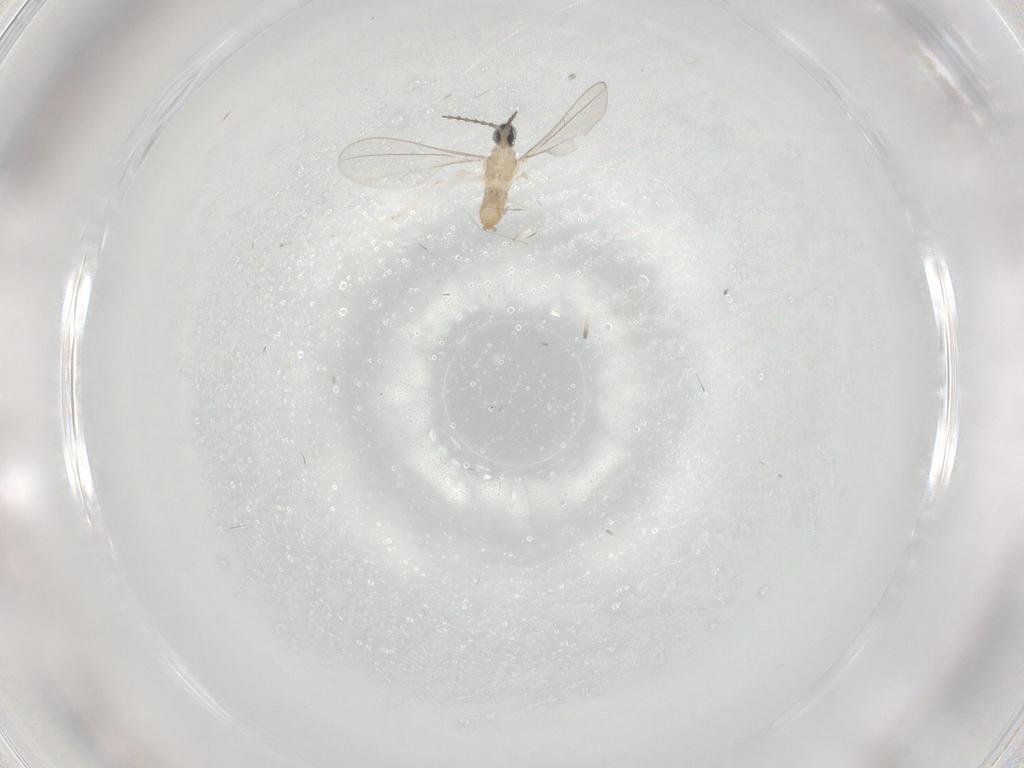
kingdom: Animalia
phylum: Arthropoda
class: Insecta
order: Diptera
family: Cecidomyiidae
